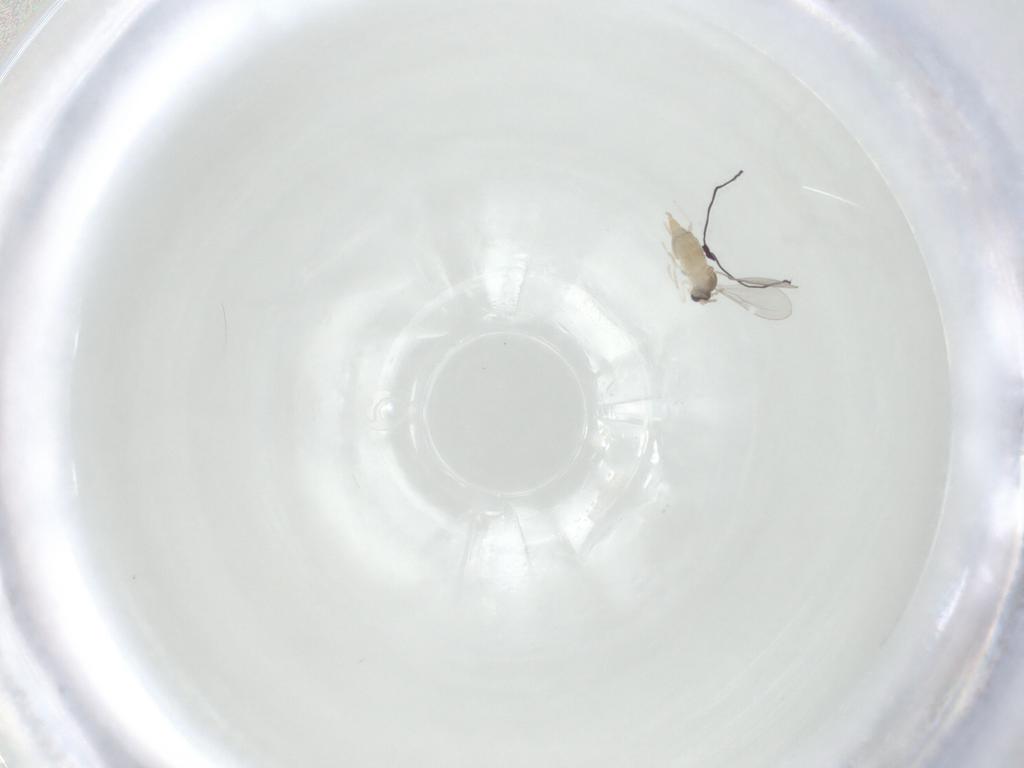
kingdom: Animalia
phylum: Arthropoda
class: Insecta
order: Diptera
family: Cecidomyiidae
